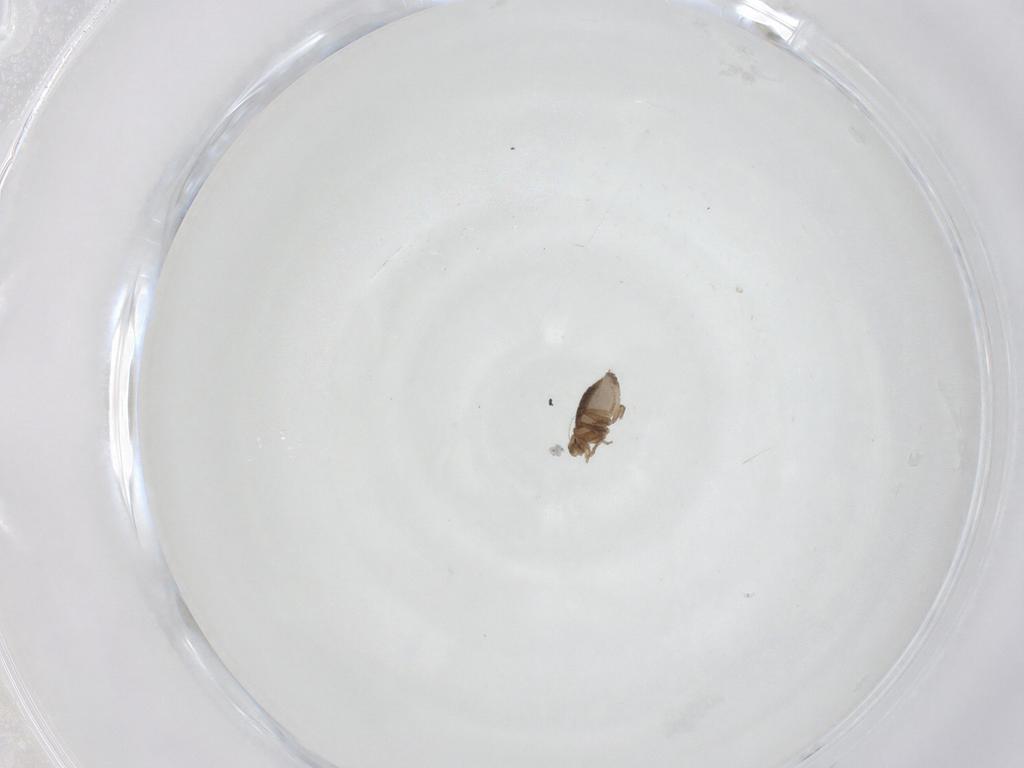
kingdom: Animalia
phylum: Arthropoda
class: Insecta
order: Diptera
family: Phoridae
